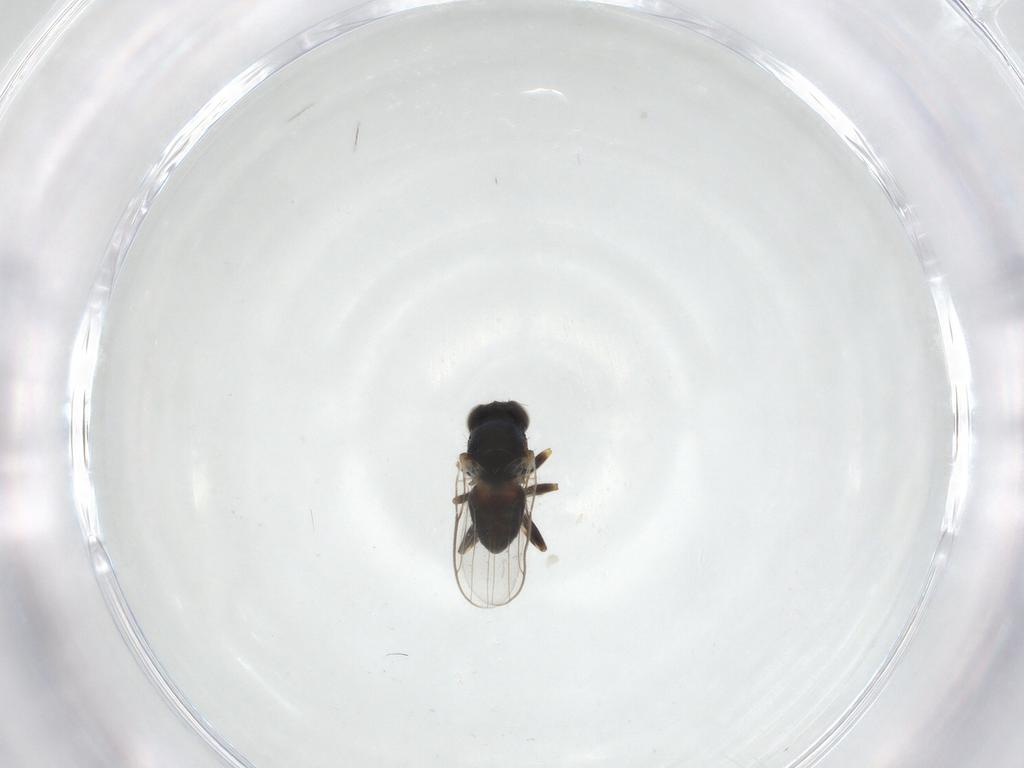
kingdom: Animalia
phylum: Arthropoda
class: Insecta
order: Diptera
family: Chloropidae
